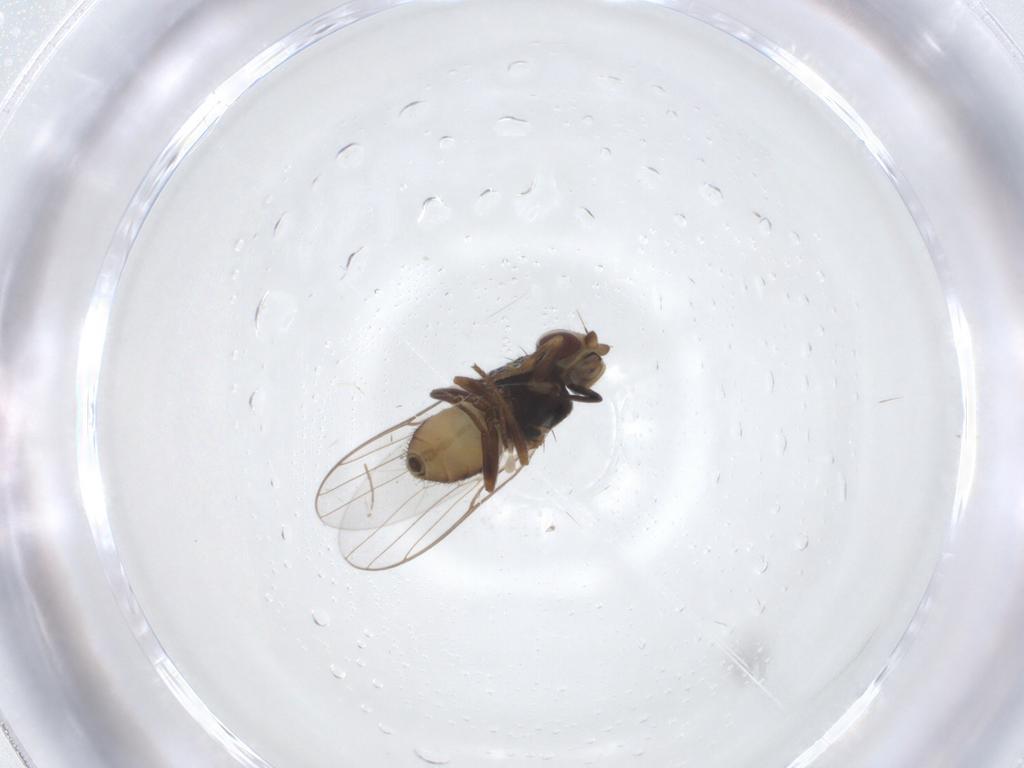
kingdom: Animalia
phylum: Arthropoda
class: Insecta
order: Diptera
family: Chloropidae
